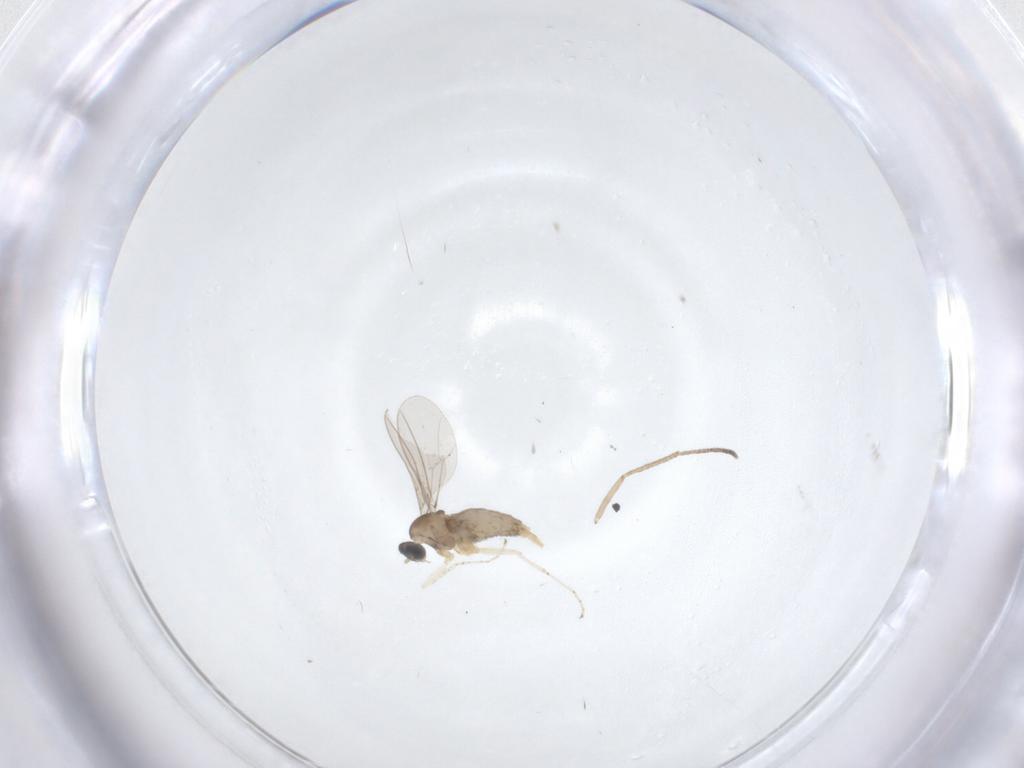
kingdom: Animalia
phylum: Arthropoda
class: Insecta
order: Diptera
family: Cecidomyiidae
